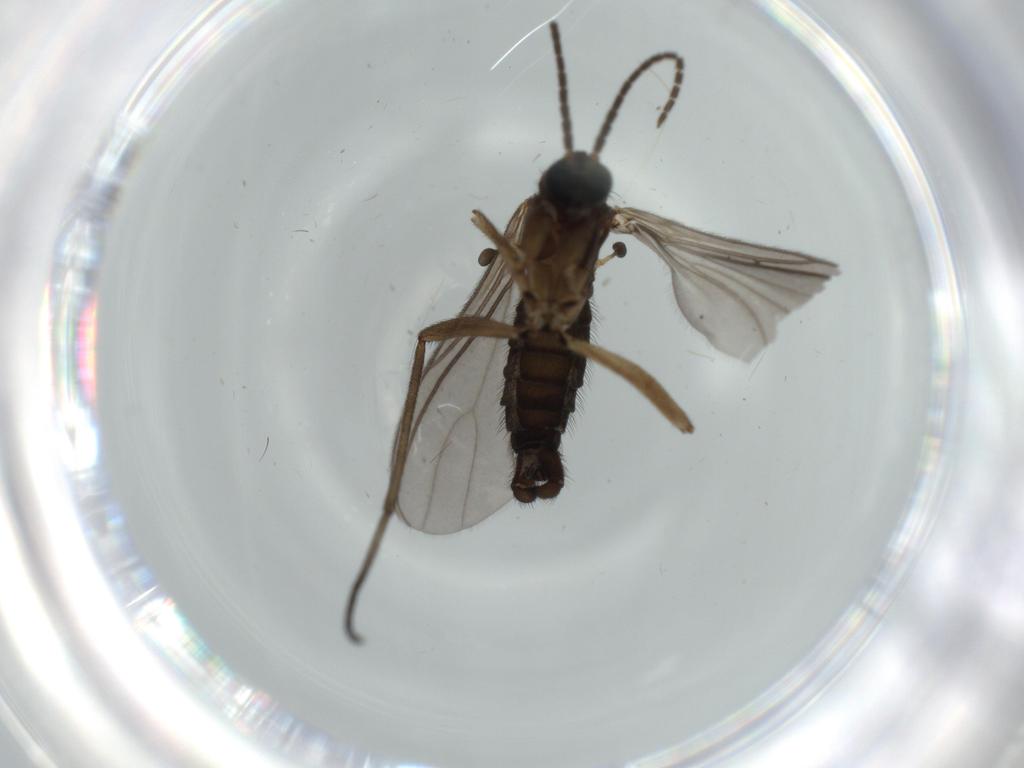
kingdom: Animalia
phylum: Arthropoda
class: Insecta
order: Diptera
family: Sciaridae
